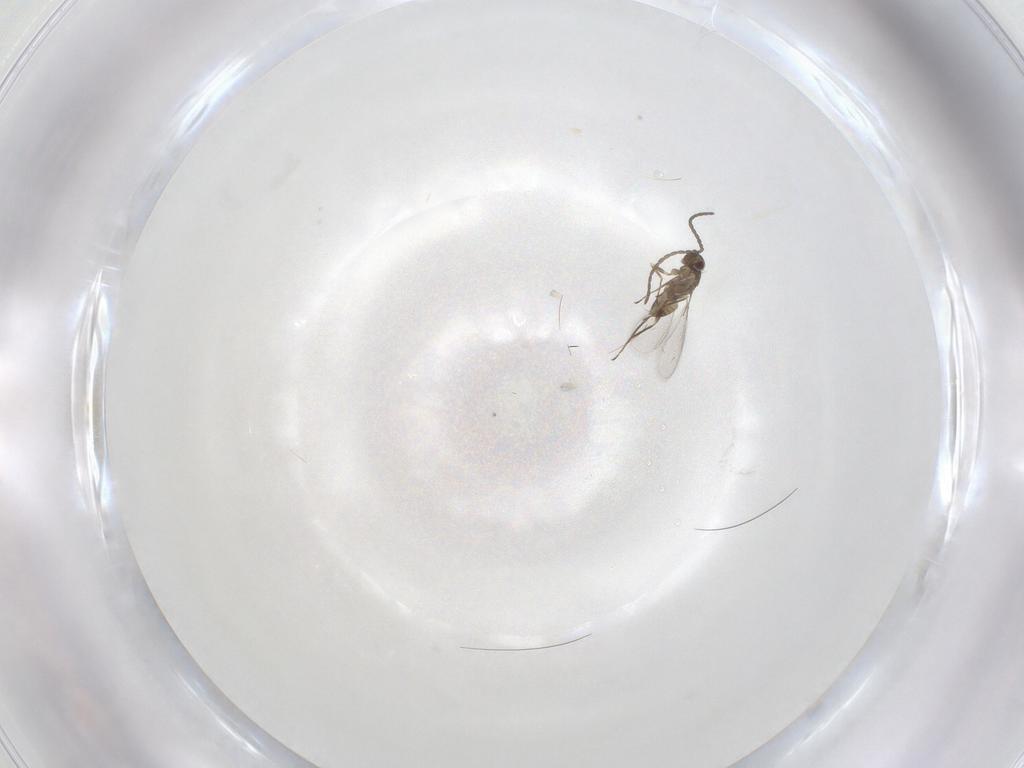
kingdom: Animalia
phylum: Arthropoda
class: Insecta
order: Hymenoptera
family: Mymaridae
